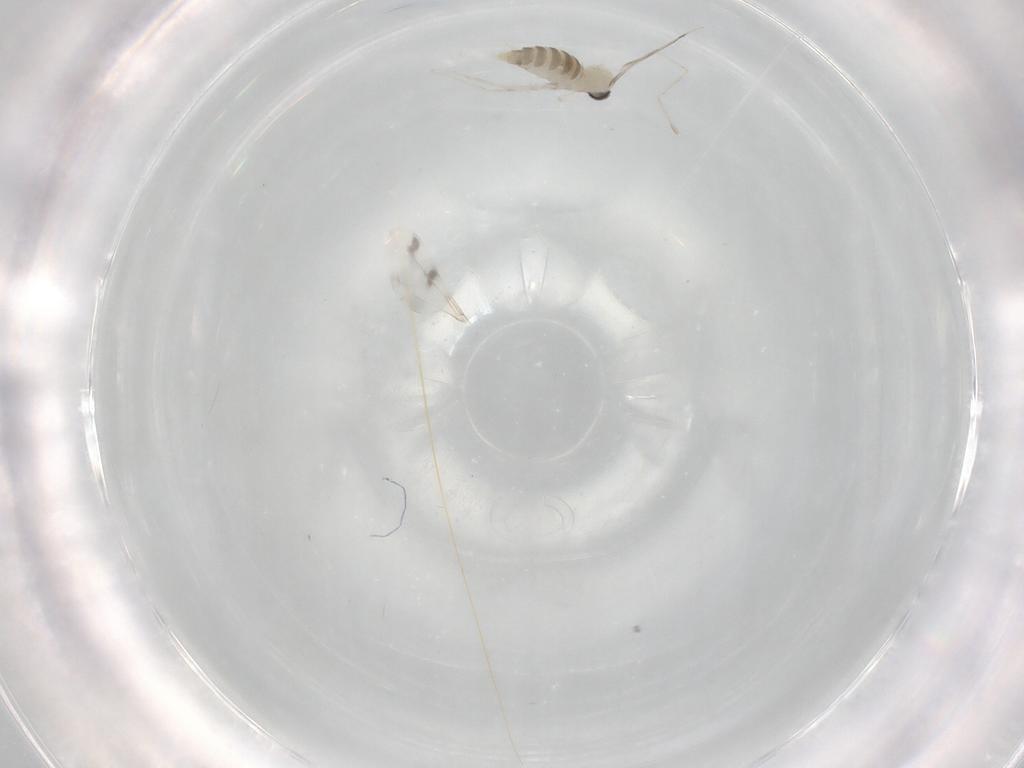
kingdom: Animalia
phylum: Arthropoda
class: Insecta
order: Diptera
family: Cecidomyiidae
